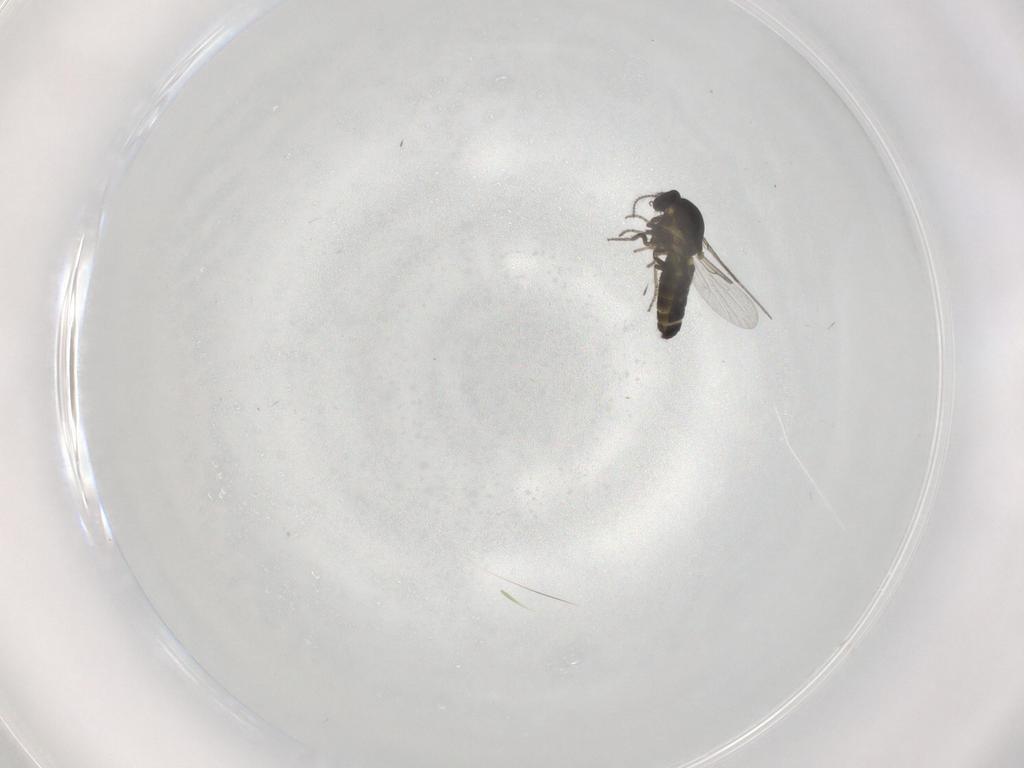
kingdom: Animalia
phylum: Arthropoda
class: Insecta
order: Diptera
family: Ceratopogonidae
